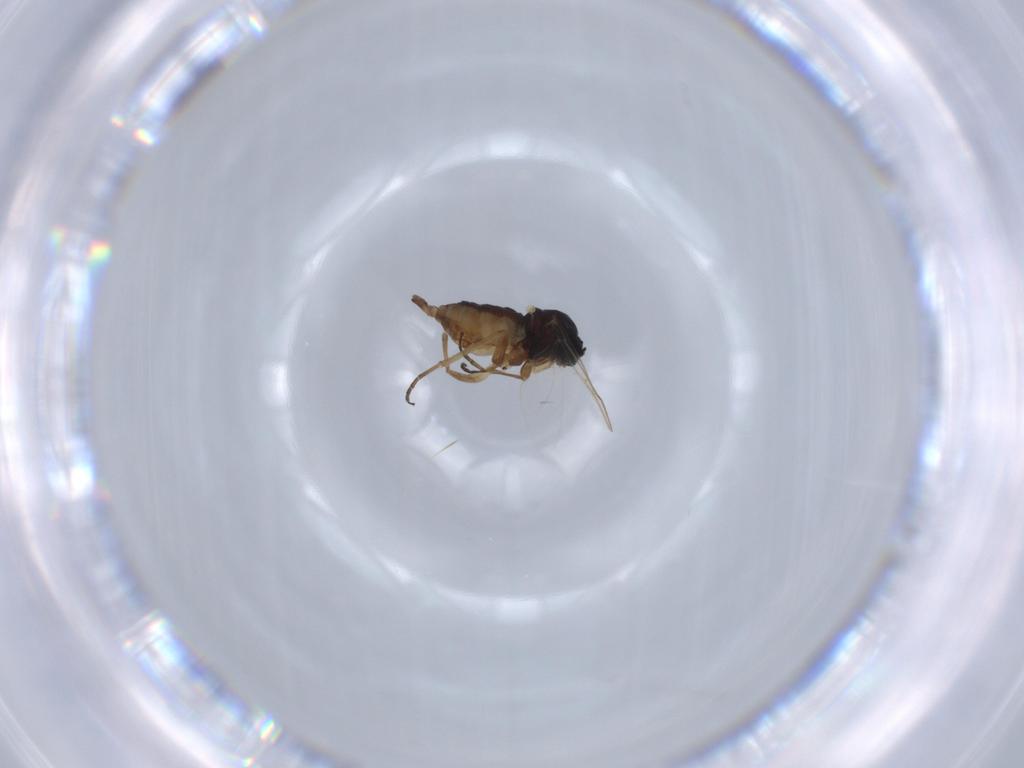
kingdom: Animalia
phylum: Arthropoda
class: Insecta
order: Diptera
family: Sciaridae
